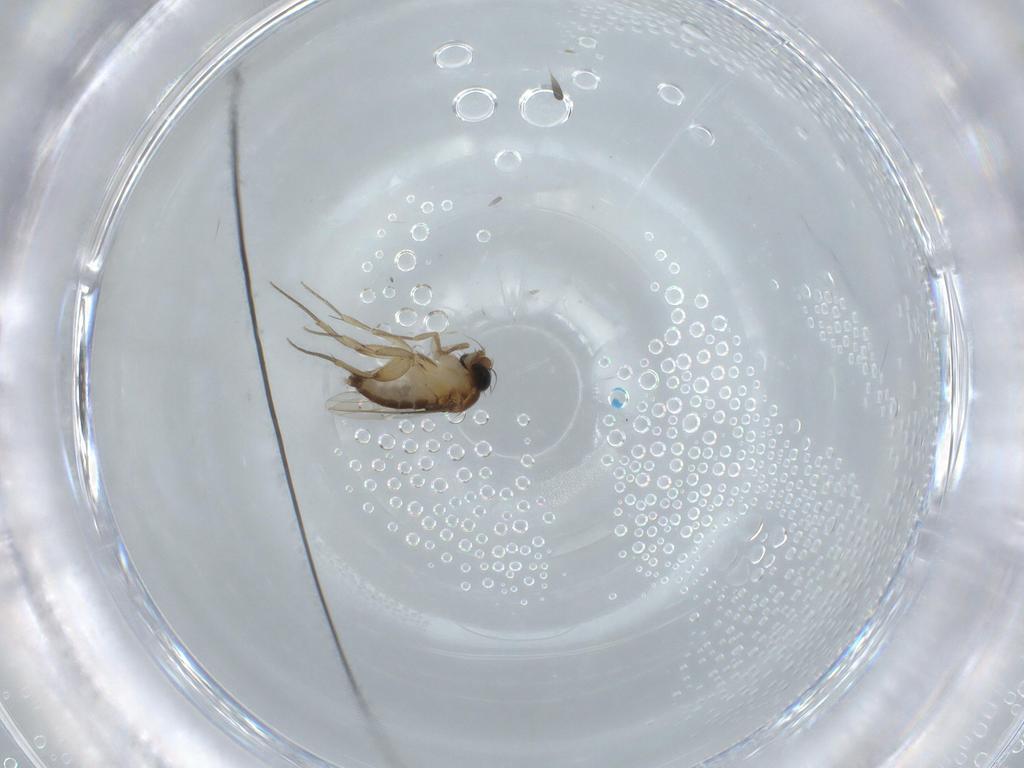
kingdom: Animalia
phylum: Arthropoda
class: Insecta
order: Diptera
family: Phoridae
